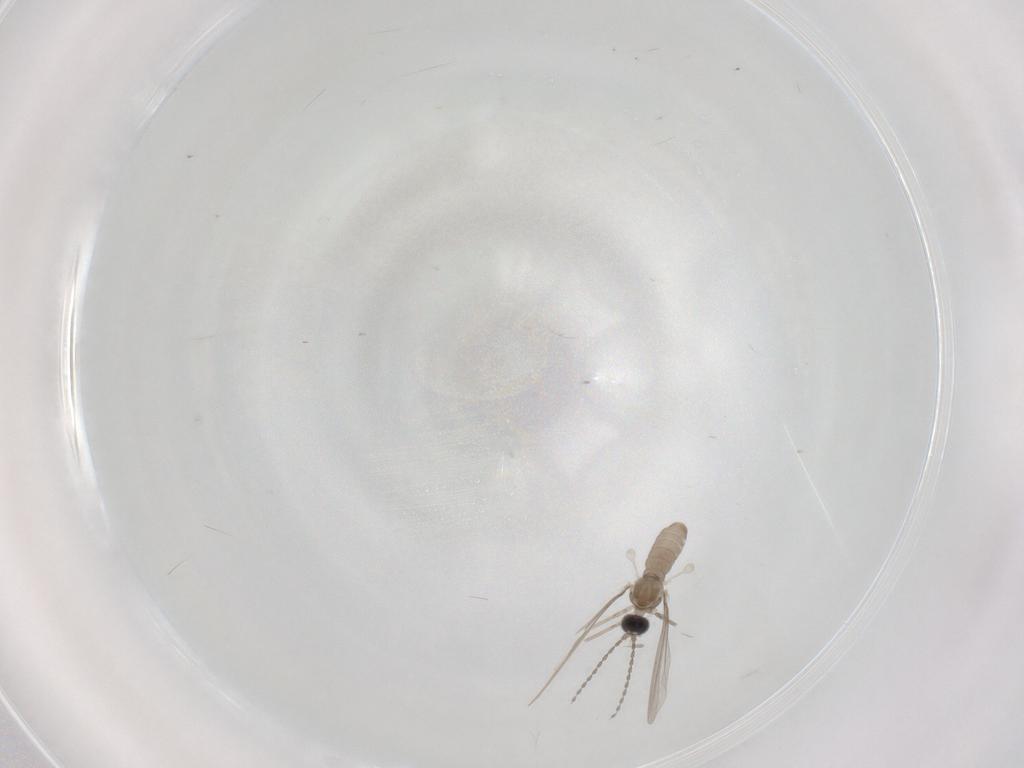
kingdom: Animalia
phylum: Arthropoda
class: Insecta
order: Diptera
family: Cecidomyiidae
